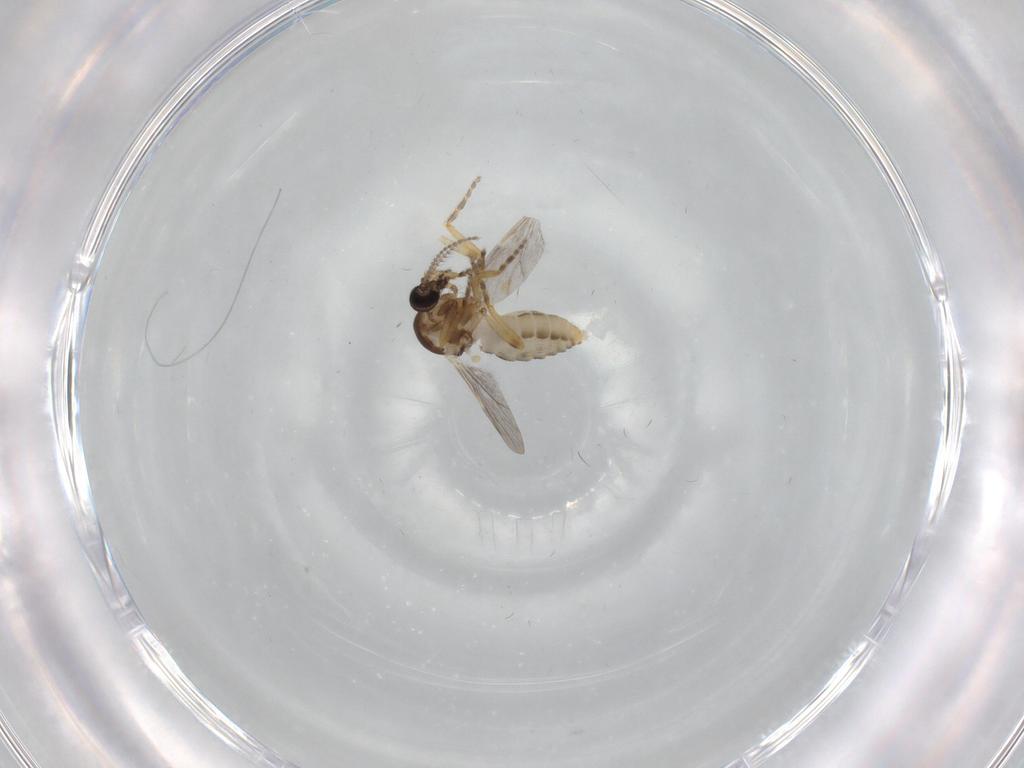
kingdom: Animalia
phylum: Arthropoda
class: Insecta
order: Diptera
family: Ceratopogonidae
